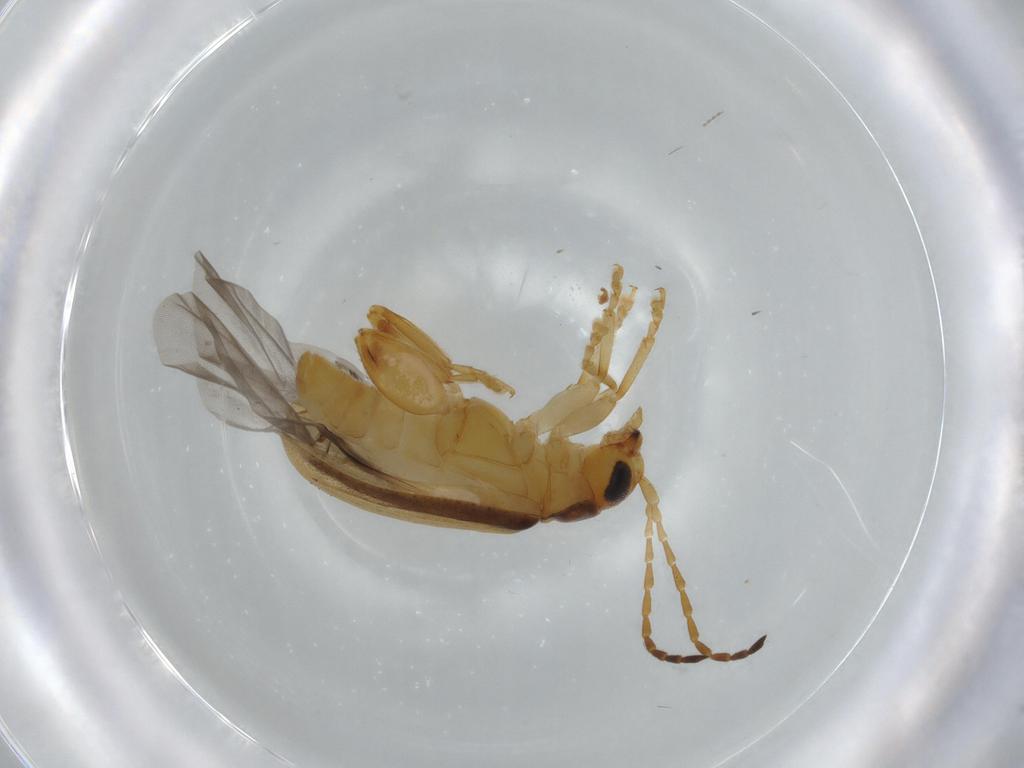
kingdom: Animalia
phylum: Arthropoda
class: Insecta
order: Coleoptera
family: Chrysomelidae
